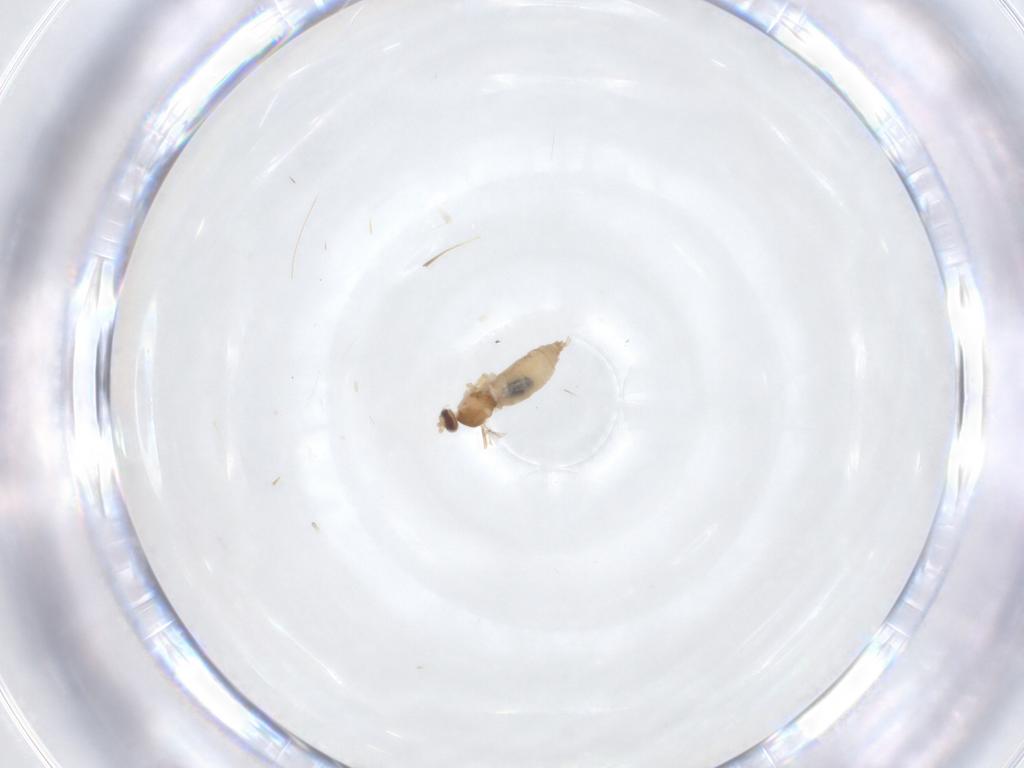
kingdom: Animalia
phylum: Arthropoda
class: Insecta
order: Diptera
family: Cecidomyiidae
